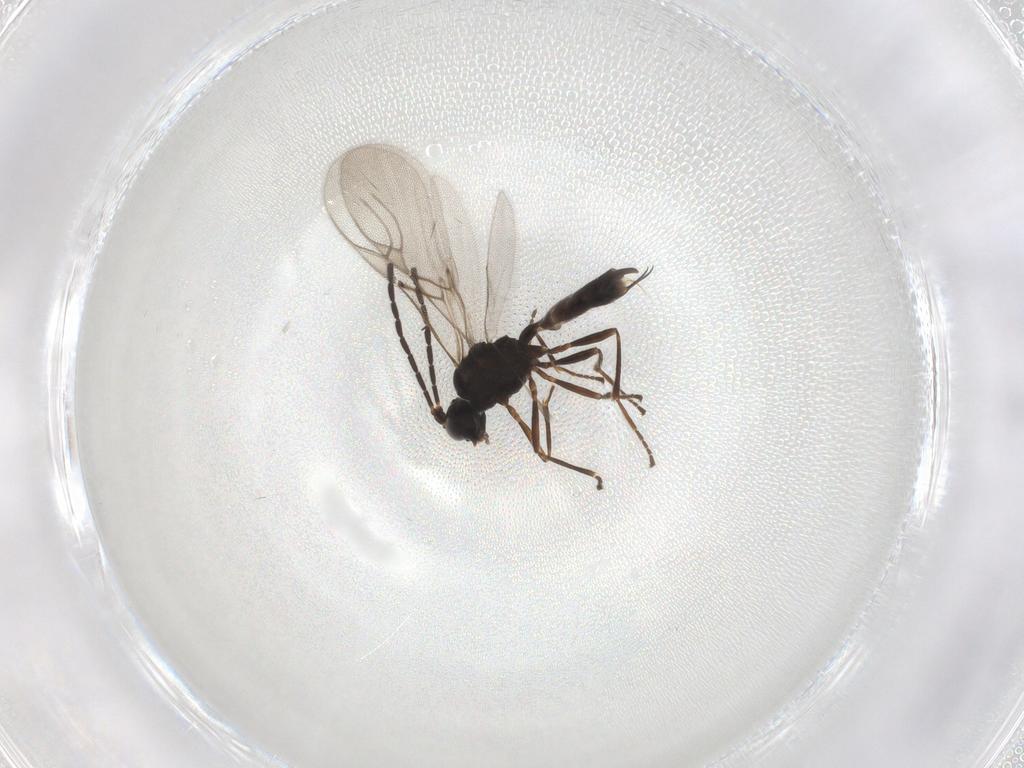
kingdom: Animalia
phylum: Arthropoda
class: Insecta
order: Hymenoptera
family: Braconidae
